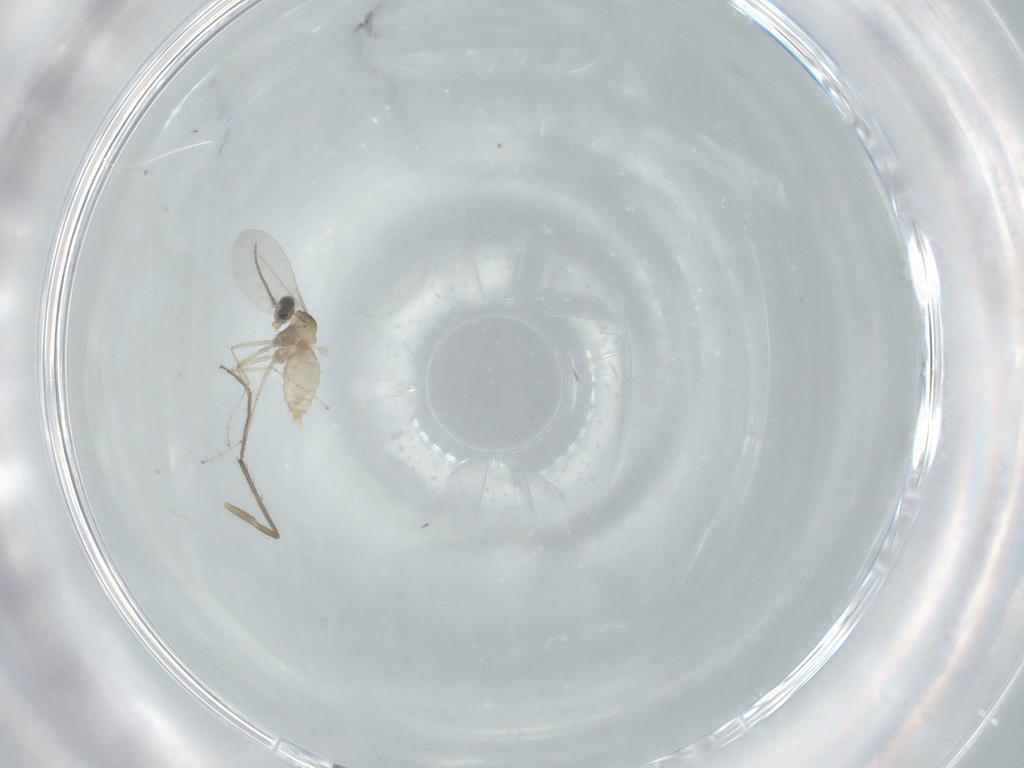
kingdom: Animalia
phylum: Arthropoda
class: Insecta
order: Diptera
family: Cecidomyiidae
